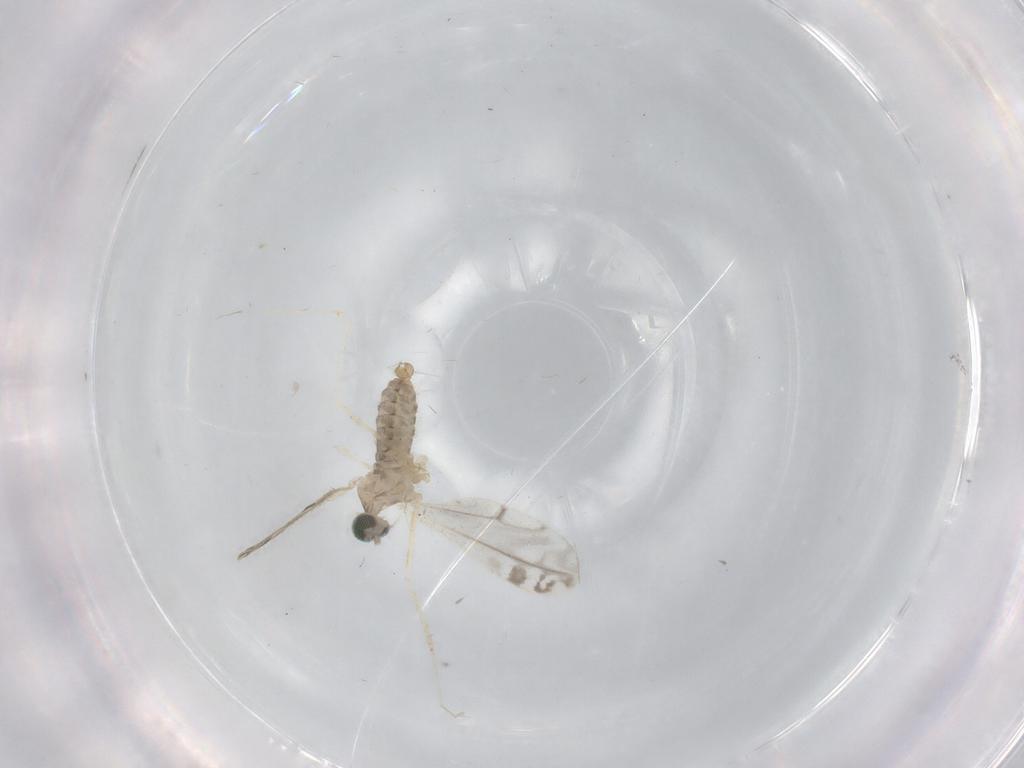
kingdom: Animalia
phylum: Arthropoda
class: Insecta
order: Diptera
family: Cecidomyiidae
